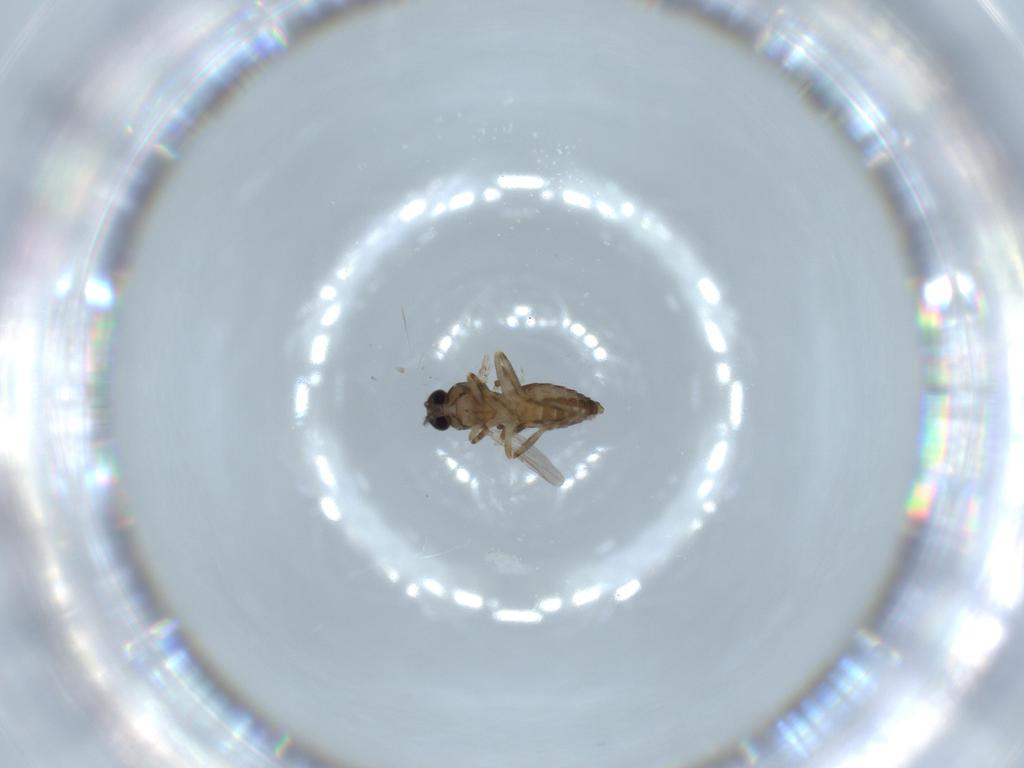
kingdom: Animalia
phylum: Arthropoda
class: Insecta
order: Diptera
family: Chironomidae
